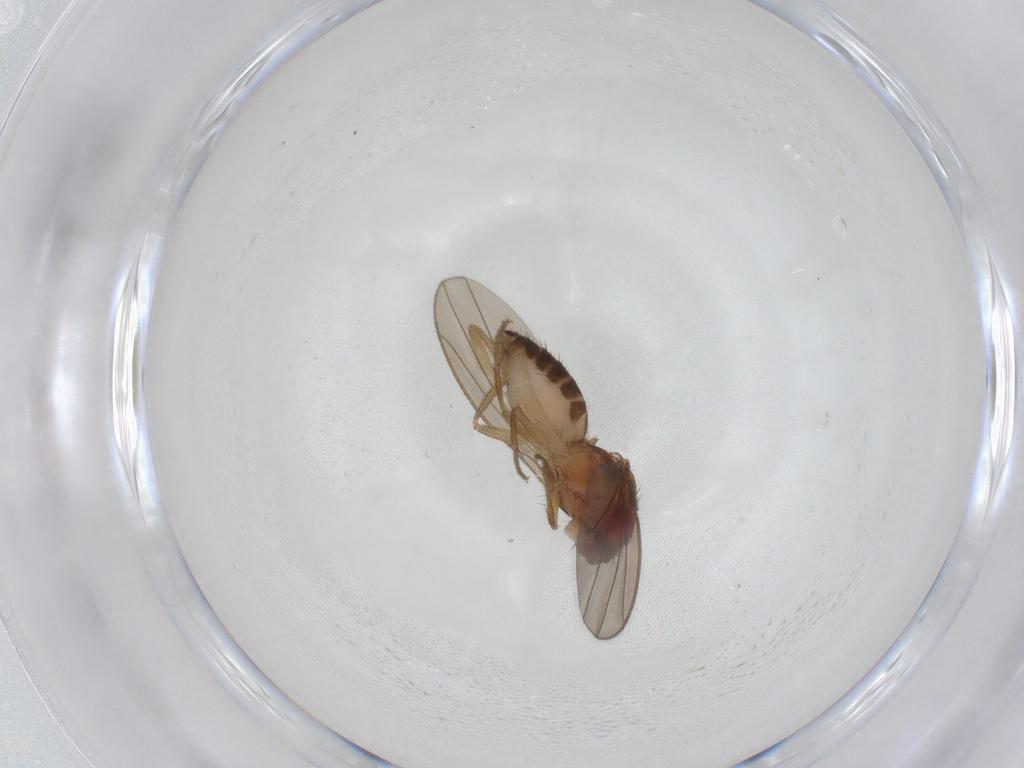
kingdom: Animalia
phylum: Arthropoda
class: Insecta
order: Diptera
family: Drosophilidae
